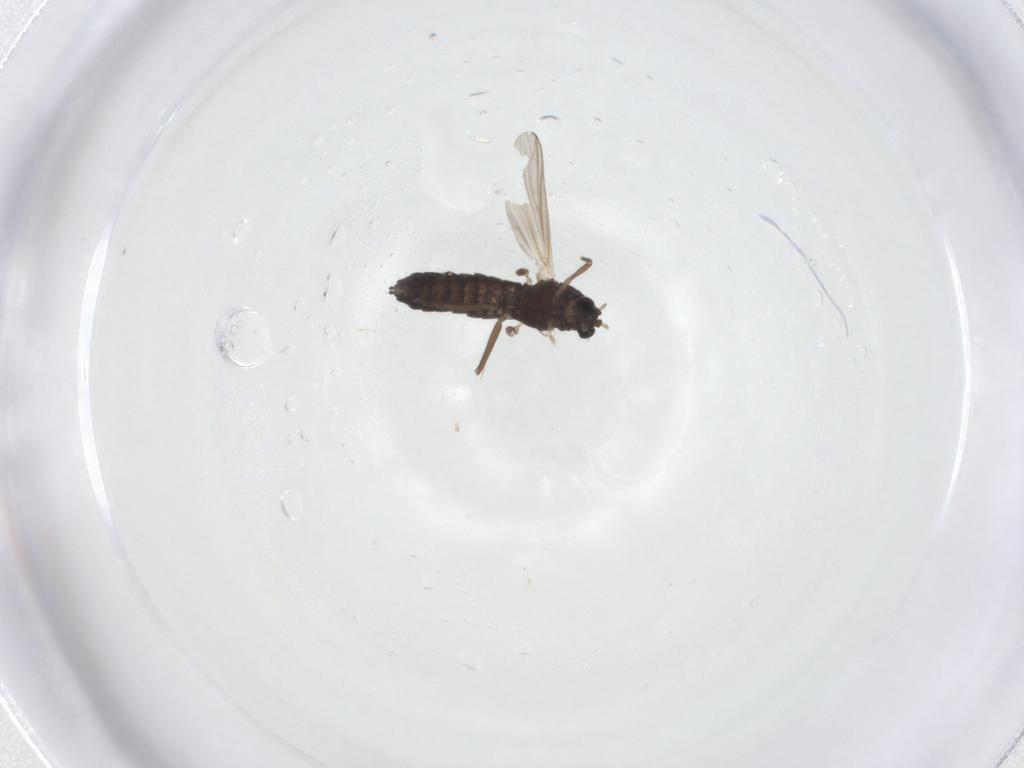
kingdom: Animalia
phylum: Arthropoda
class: Insecta
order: Diptera
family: Chironomidae
